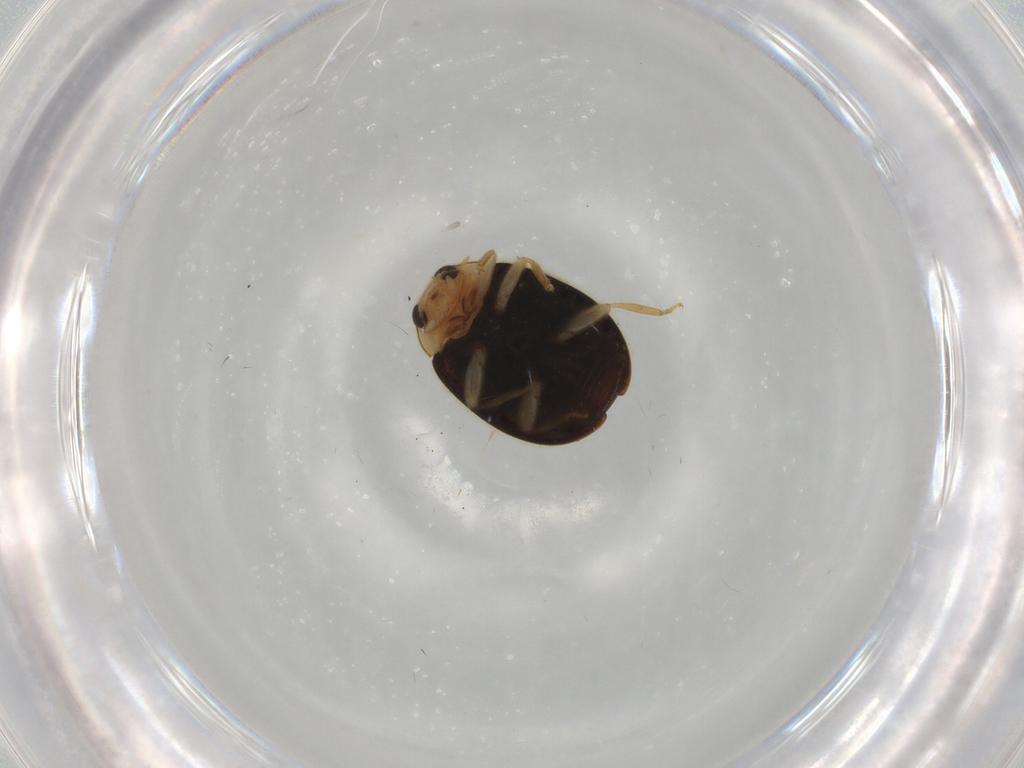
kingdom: Animalia
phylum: Arthropoda
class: Insecta
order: Coleoptera
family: Coccinellidae
